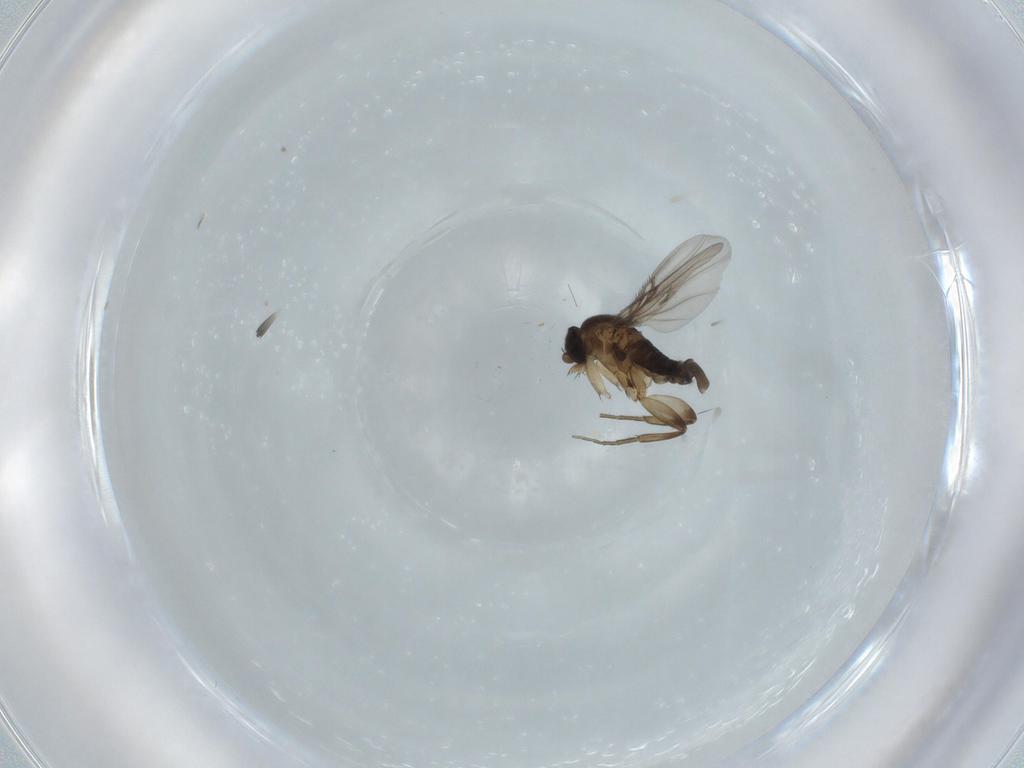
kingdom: Animalia
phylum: Arthropoda
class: Insecta
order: Diptera
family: Phoridae
